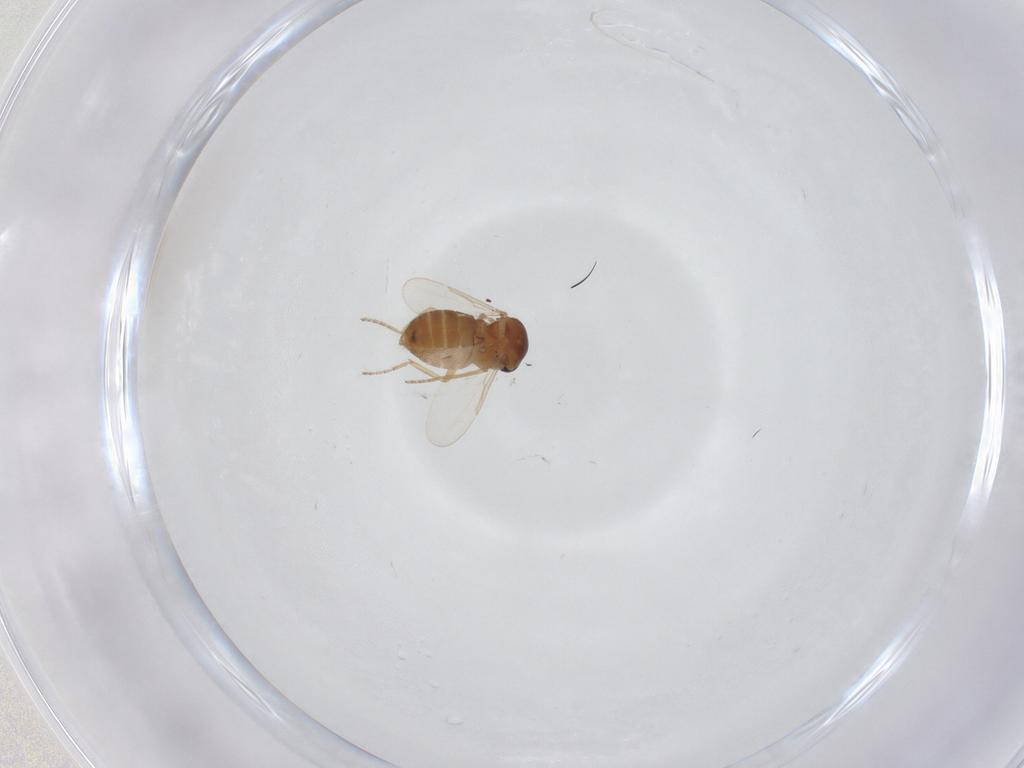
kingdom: Animalia
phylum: Arthropoda
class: Insecta
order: Diptera
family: Ceratopogonidae
